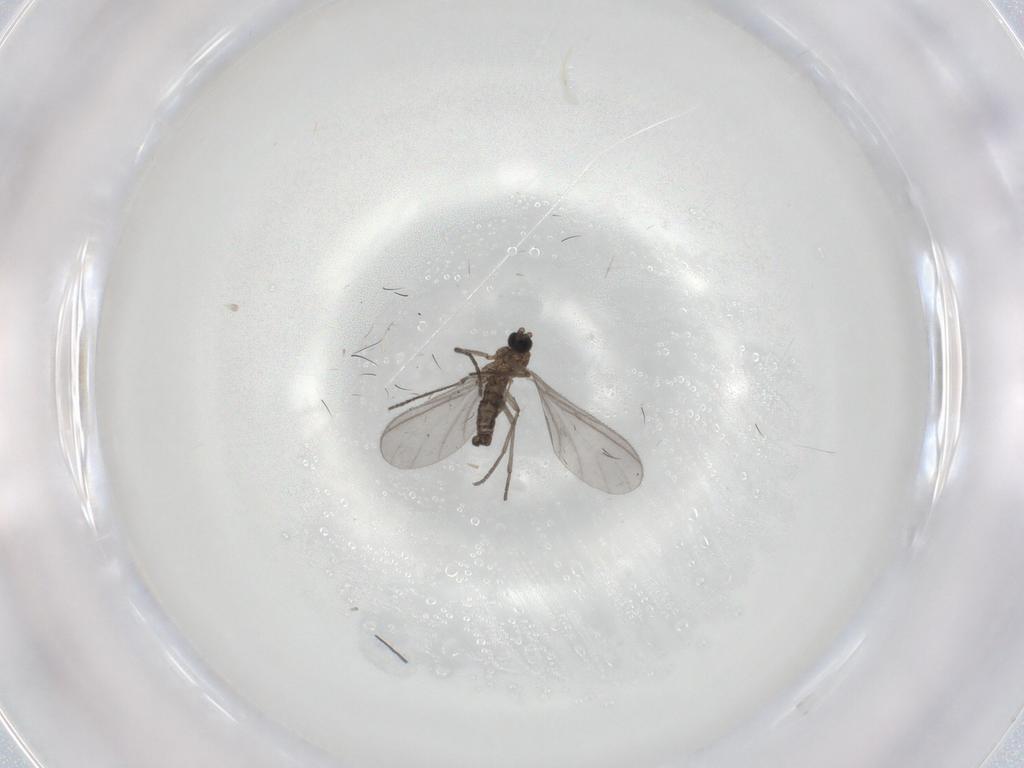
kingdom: Animalia
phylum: Arthropoda
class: Insecta
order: Diptera
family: Sciaridae
